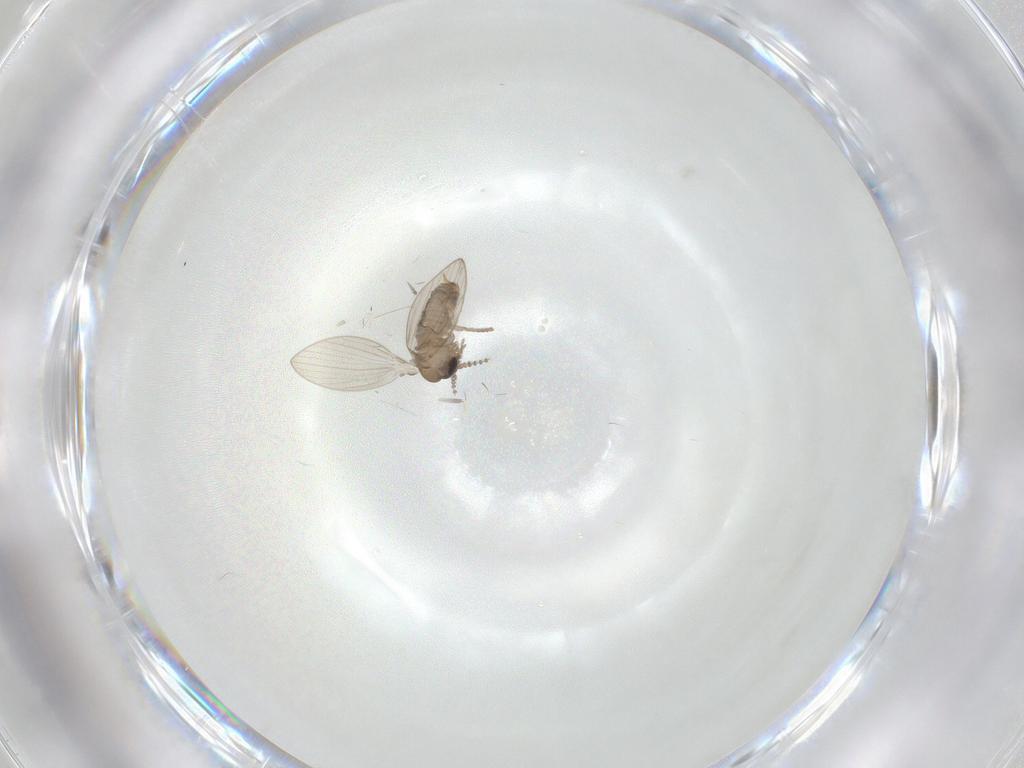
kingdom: Animalia
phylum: Arthropoda
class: Insecta
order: Diptera
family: Psychodidae
